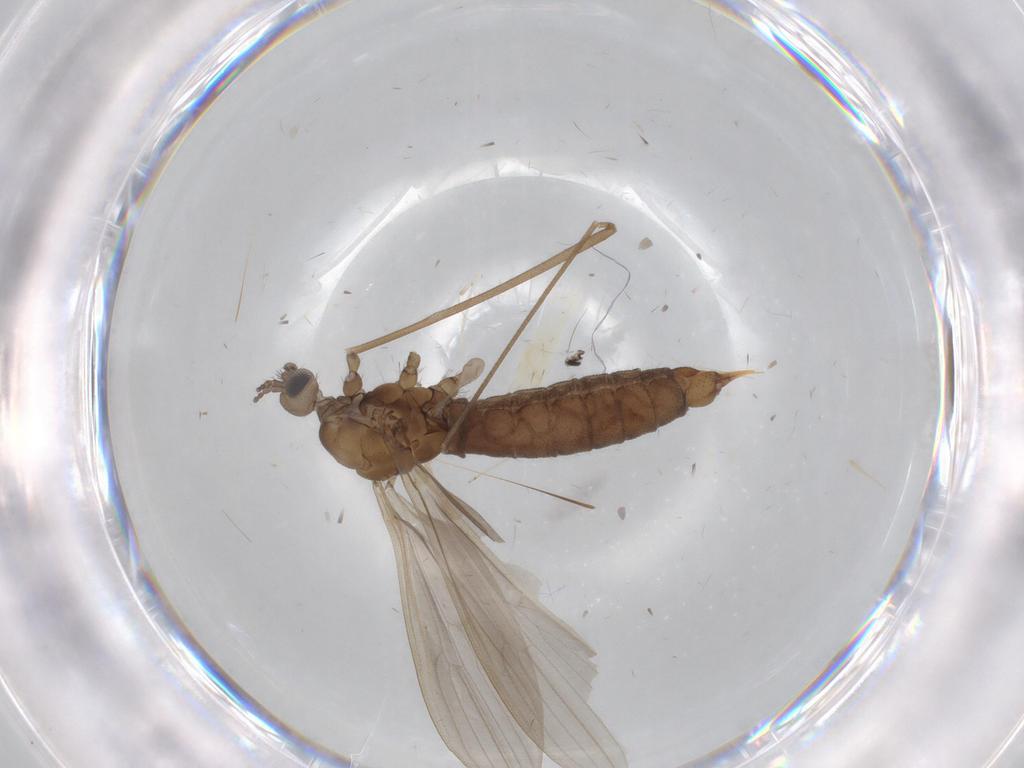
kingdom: Animalia
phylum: Arthropoda
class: Insecta
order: Diptera
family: Limoniidae
